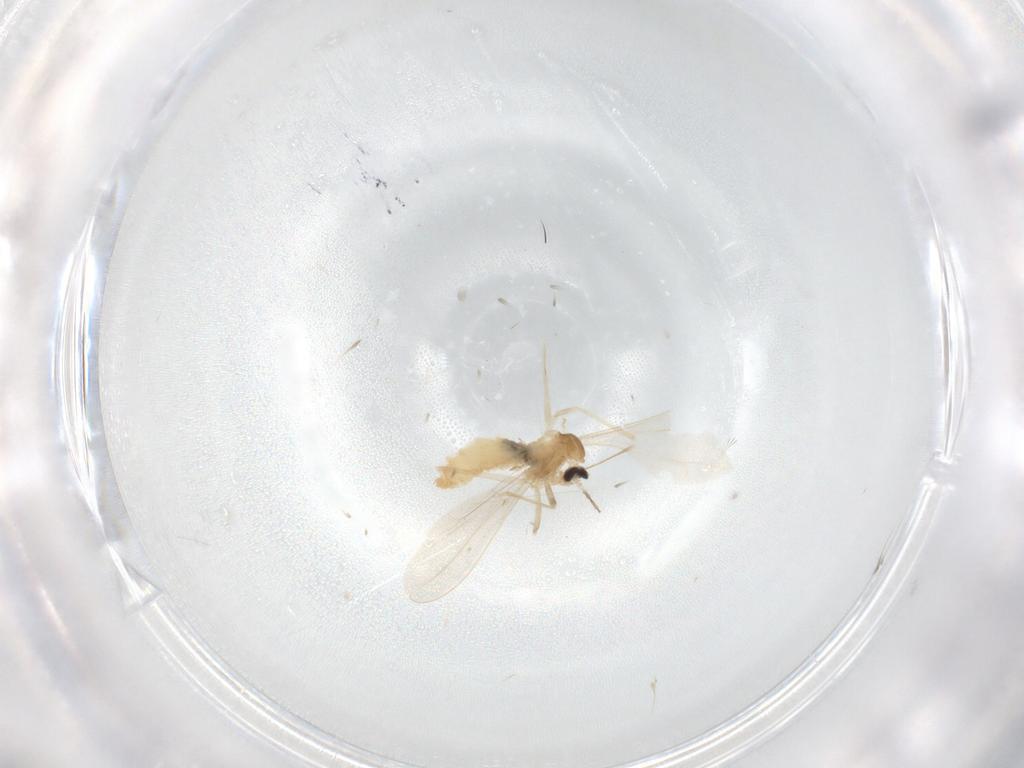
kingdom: Animalia
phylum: Arthropoda
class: Insecta
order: Diptera
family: Cecidomyiidae
